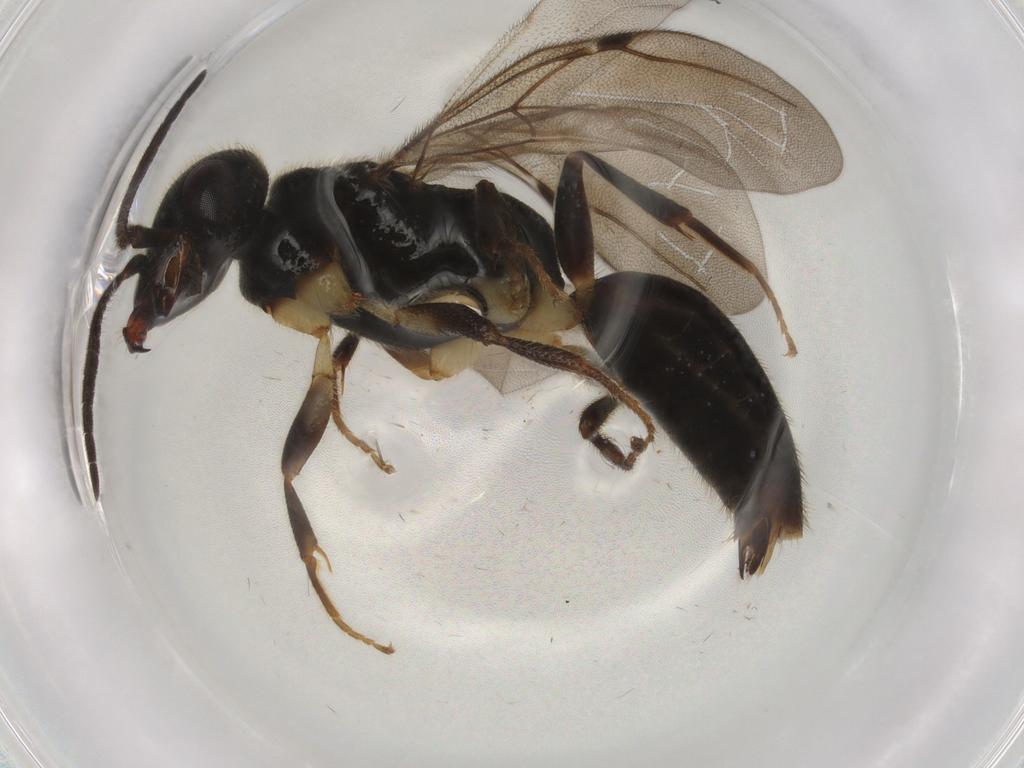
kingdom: Animalia
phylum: Arthropoda
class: Insecta
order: Hymenoptera
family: Bethylidae
